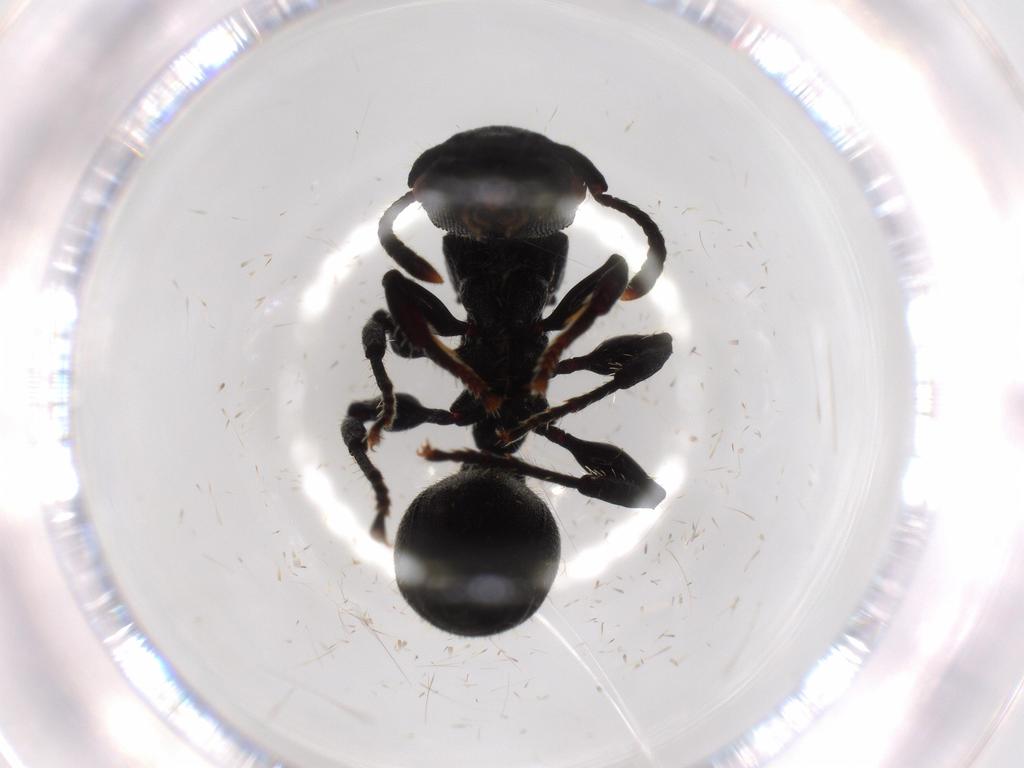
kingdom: Animalia
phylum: Arthropoda
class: Insecta
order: Hymenoptera
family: Formicidae
